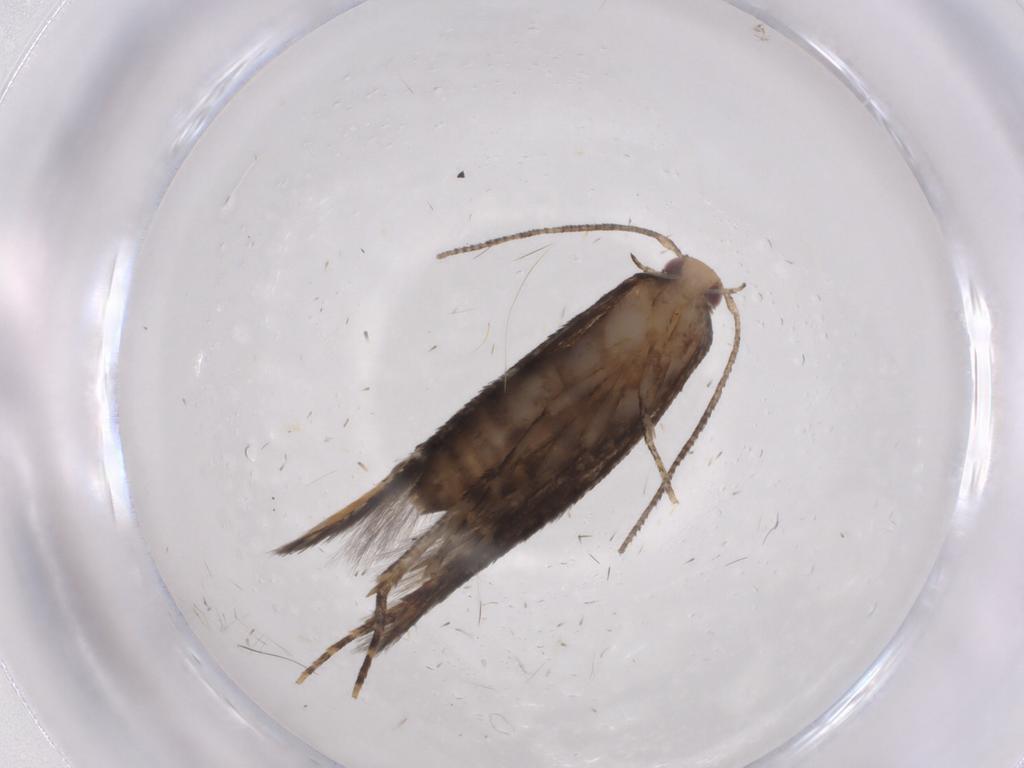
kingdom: Animalia
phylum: Arthropoda
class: Insecta
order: Lepidoptera
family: Cosmopterigidae
